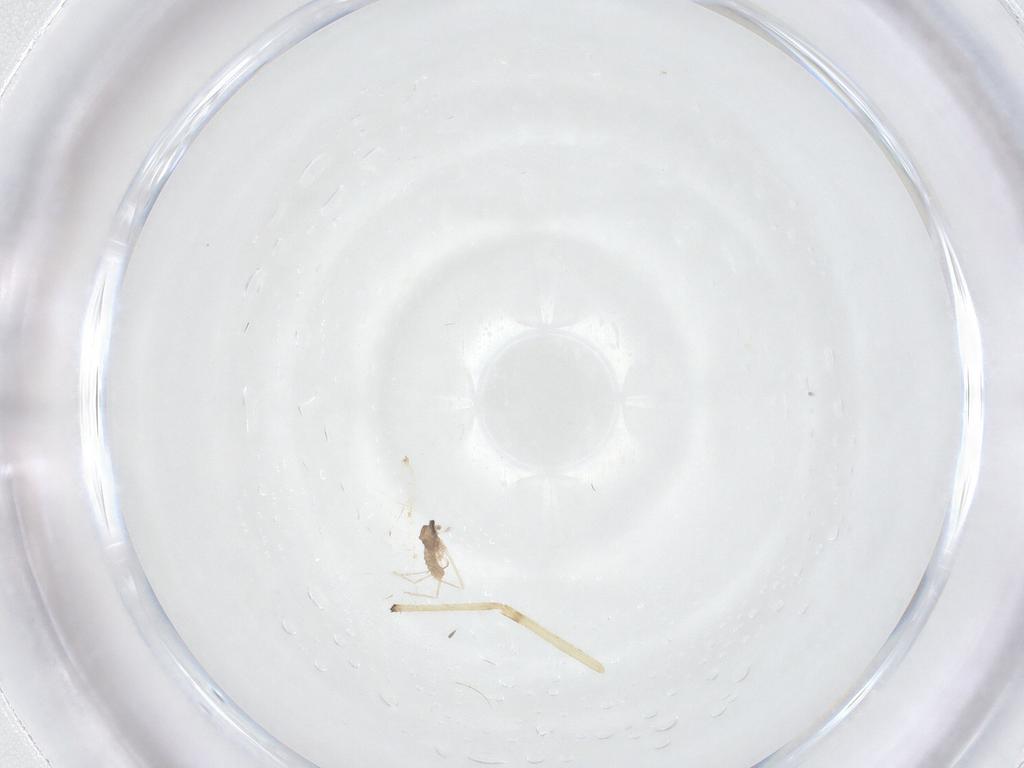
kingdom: Animalia
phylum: Arthropoda
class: Insecta
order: Diptera
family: Cecidomyiidae
